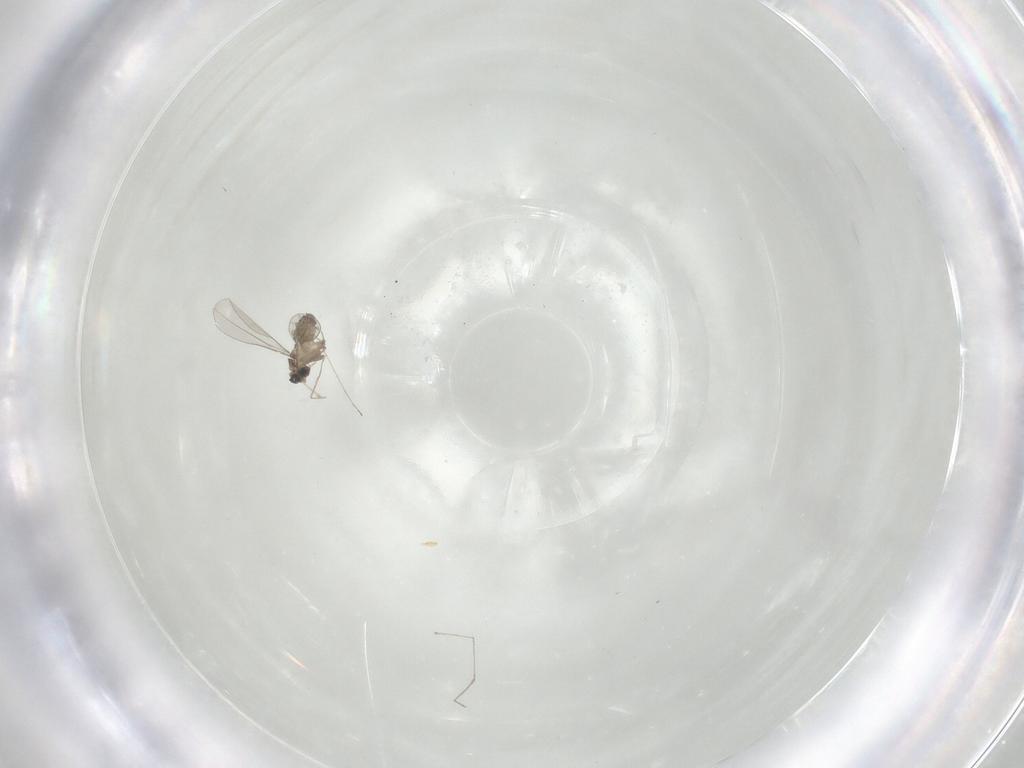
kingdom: Animalia
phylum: Arthropoda
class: Insecta
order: Diptera
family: Cecidomyiidae
